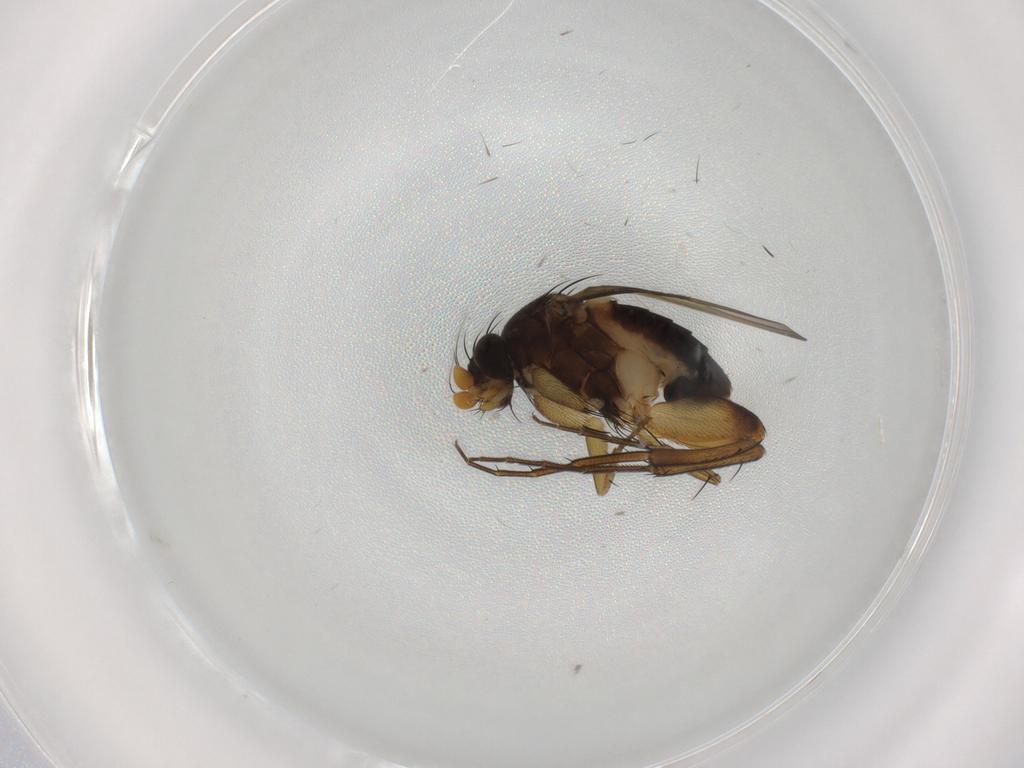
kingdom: Animalia
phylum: Arthropoda
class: Insecta
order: Diptera
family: Phoridae
